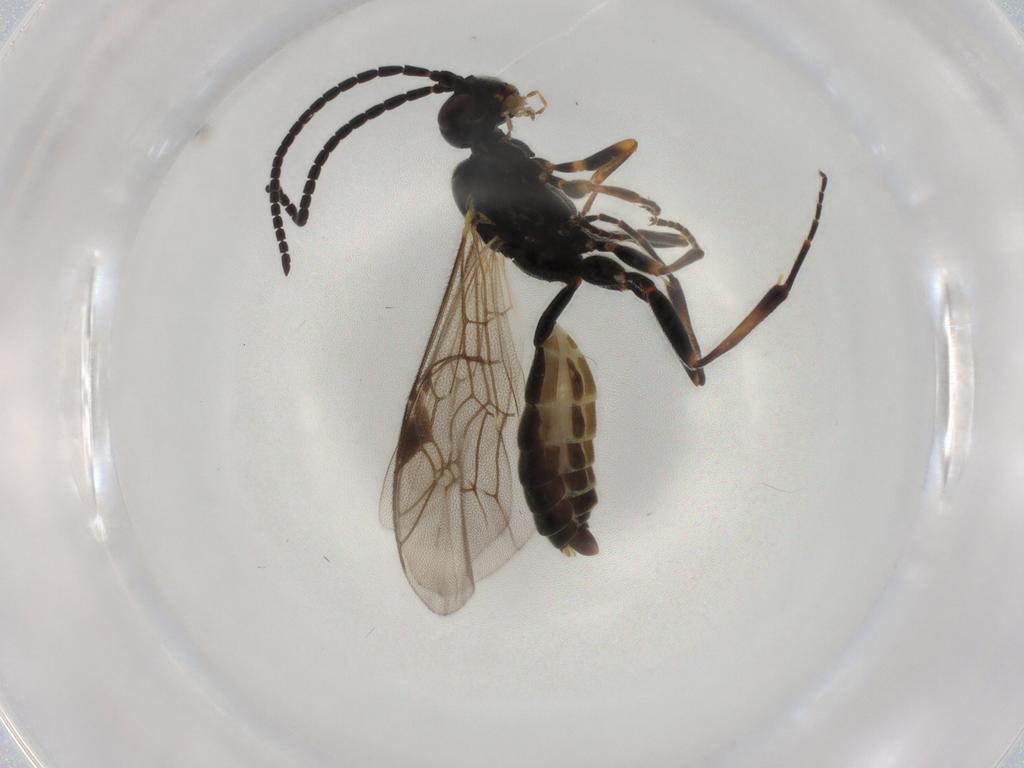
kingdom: Animalia
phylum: Arthropoda
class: Insecta
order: Hymenoptera
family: Ichneumonidae
